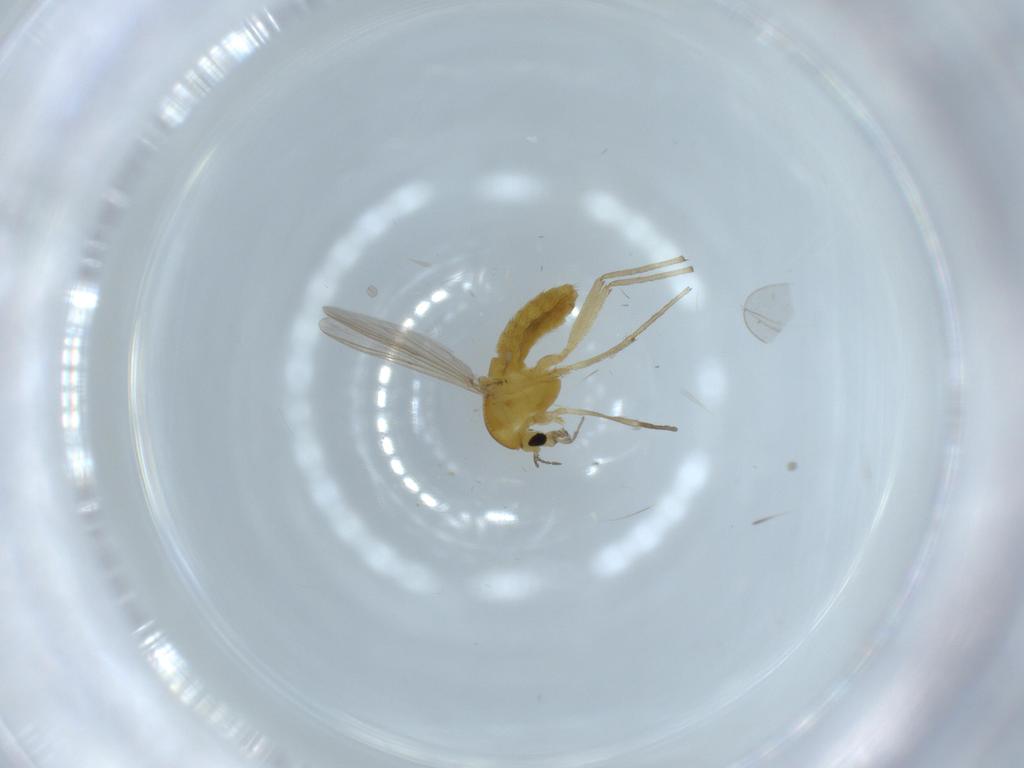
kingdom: Animalia
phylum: Arthropoda
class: Insecta
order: Diptera
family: Chironomidae
